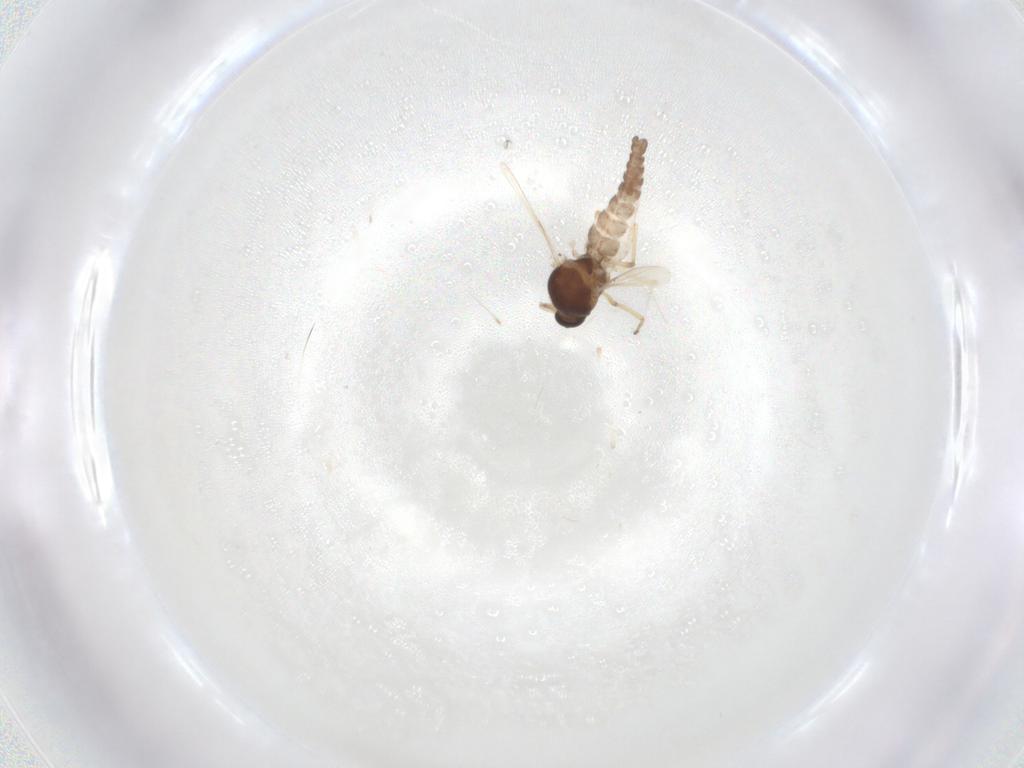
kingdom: Animalia
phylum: Arthropoda
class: Insecta
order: Diptera
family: Ceratopogonidae
